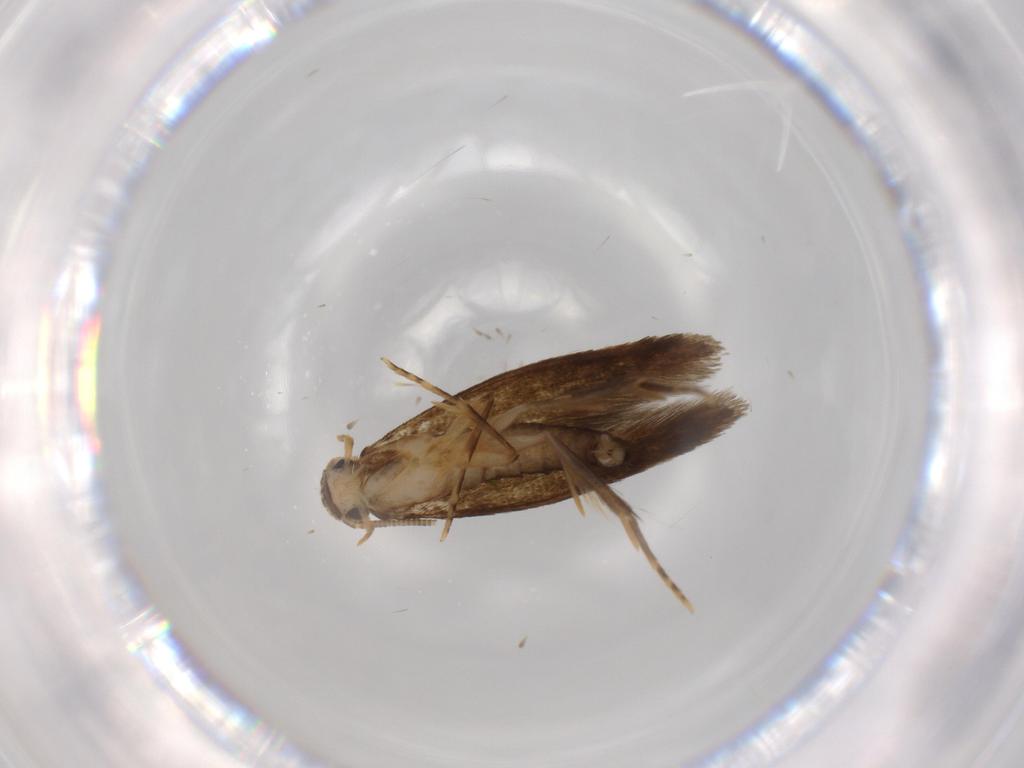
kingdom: Animalia
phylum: Arthropoda
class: Insecta
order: Lepidoptera
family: Tineidae
